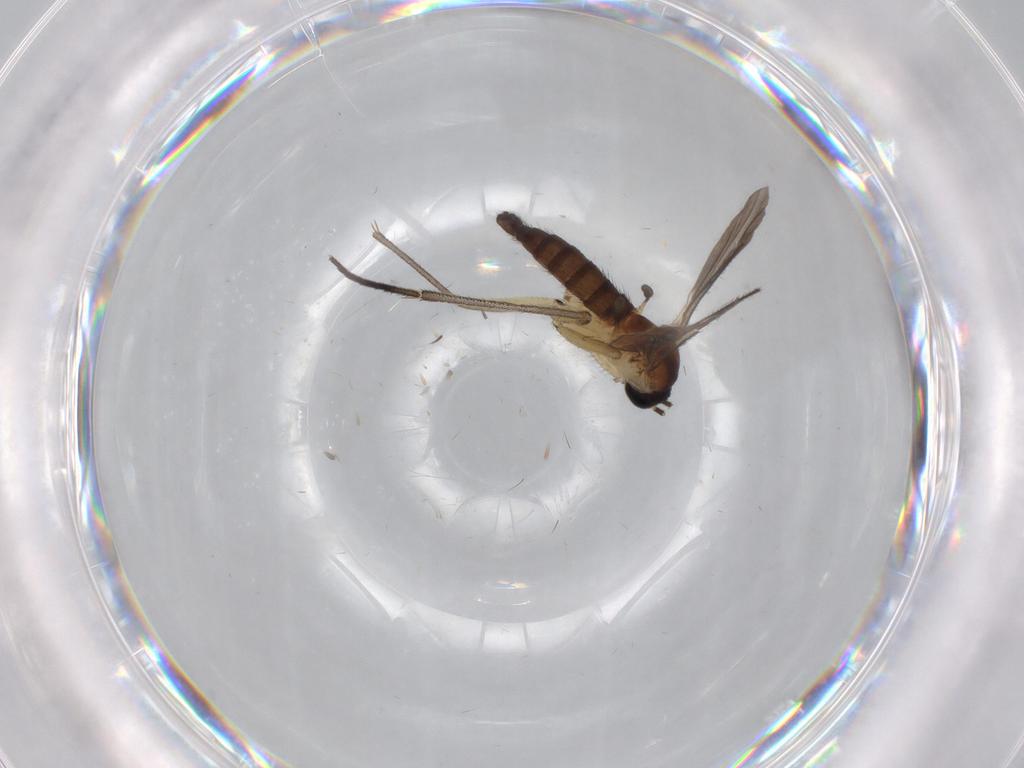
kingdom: Animalia
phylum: Arthropoda
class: Insecta
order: Diptera
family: Sciaridae
